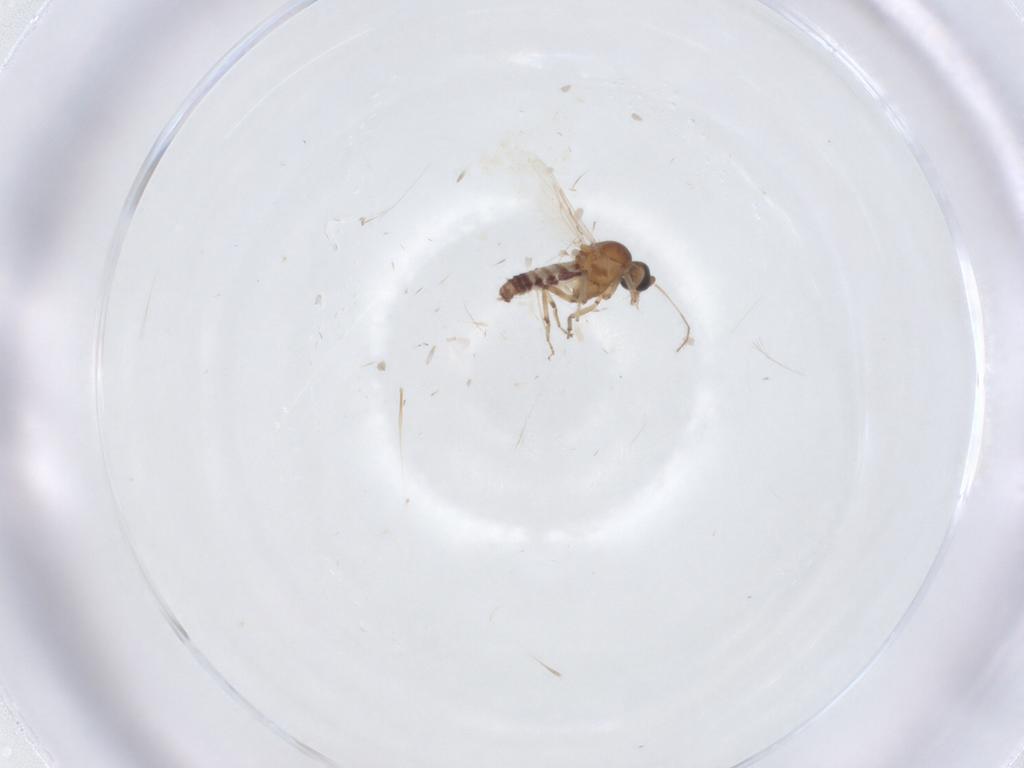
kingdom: Animalia
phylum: Arthropoda
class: Insecta
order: Diptera
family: Ceratopogonidae
